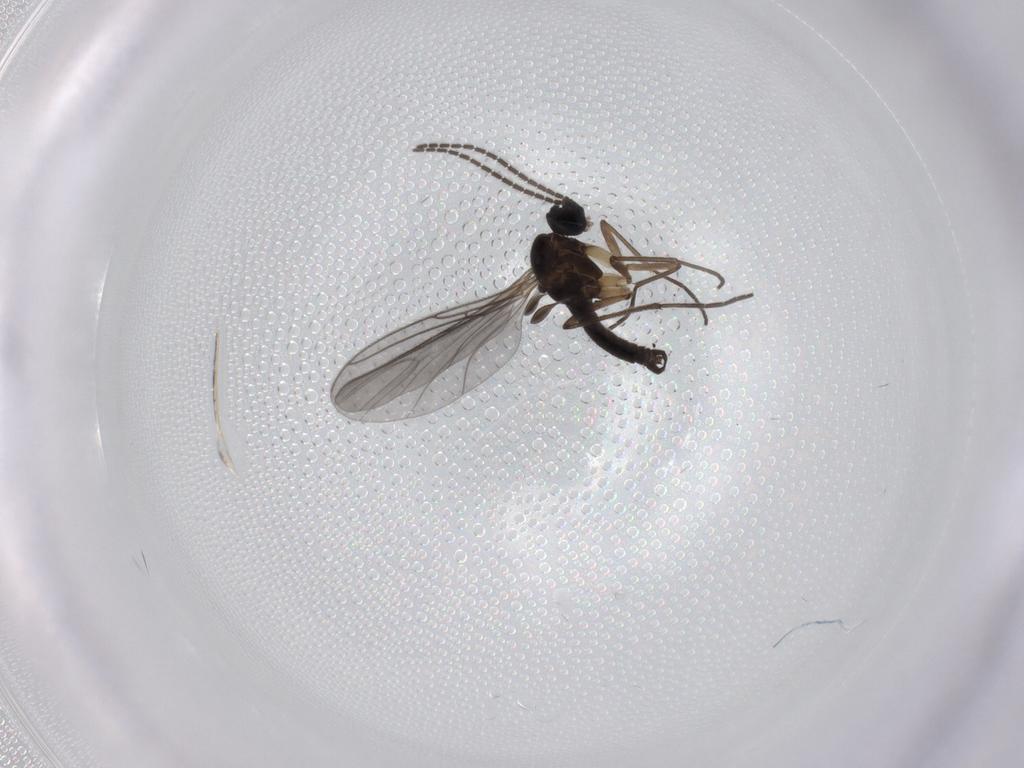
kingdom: Animalia
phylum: Arthropoda
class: Insecta
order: Diptera
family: Sciaridae
